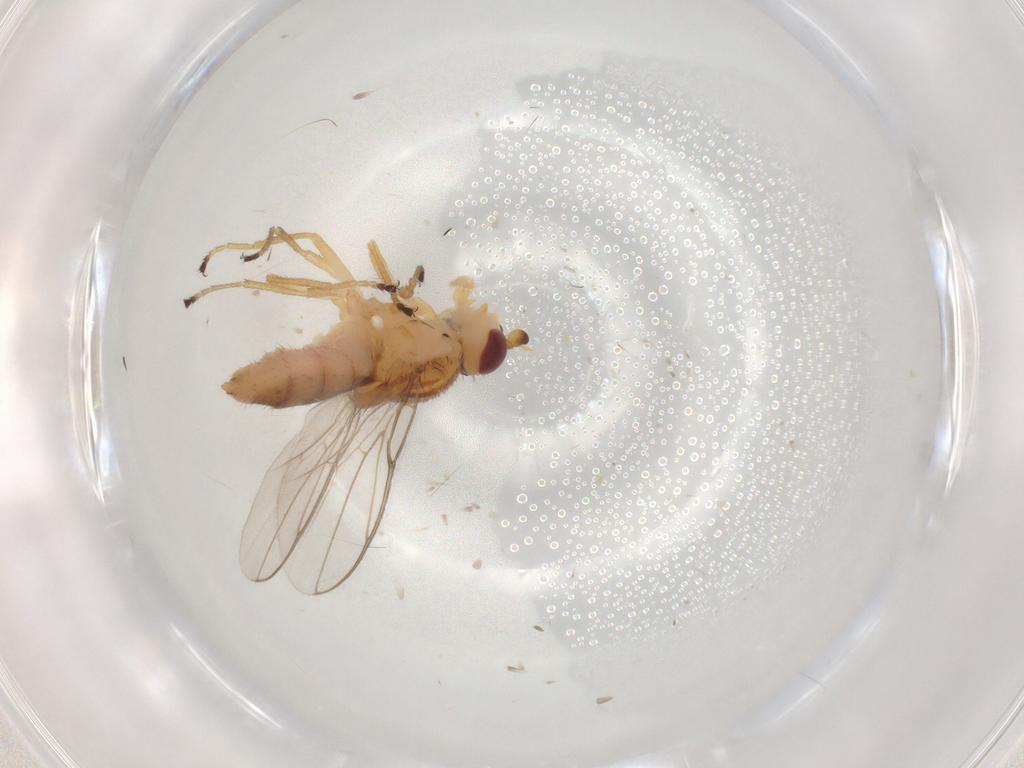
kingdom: Animalia
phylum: Arthropoda
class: Insecta
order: Diptera
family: Chloropidae
